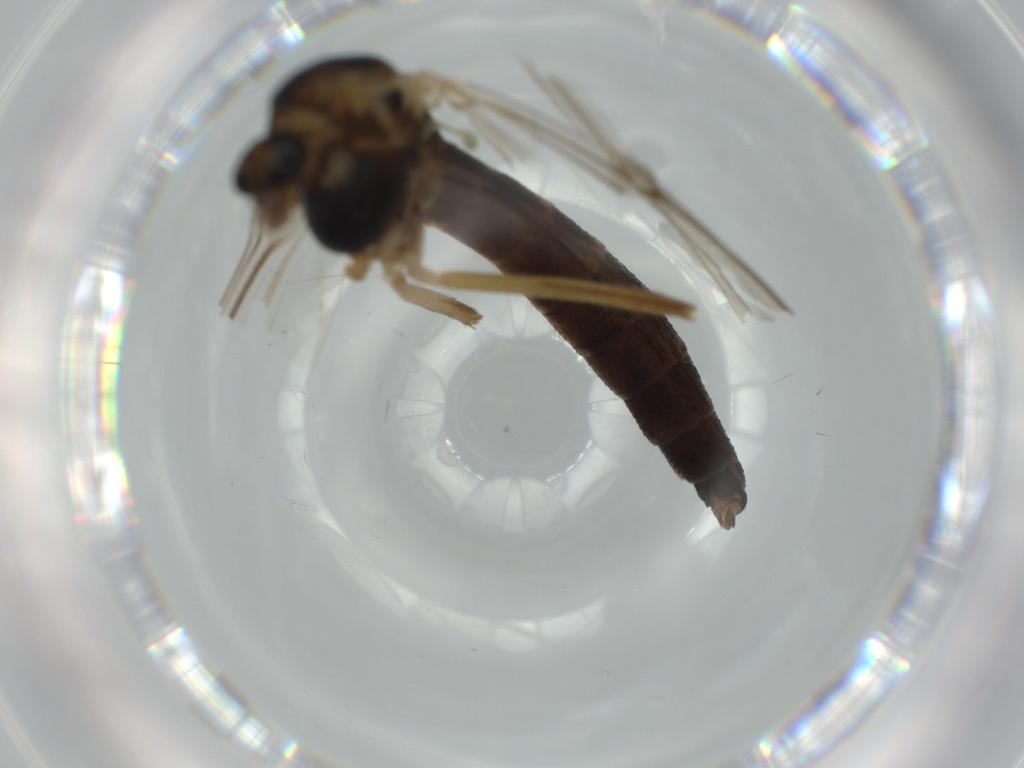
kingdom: Animalia
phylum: Arthropoda
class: Insecta
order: Diptera
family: Chironomidae
